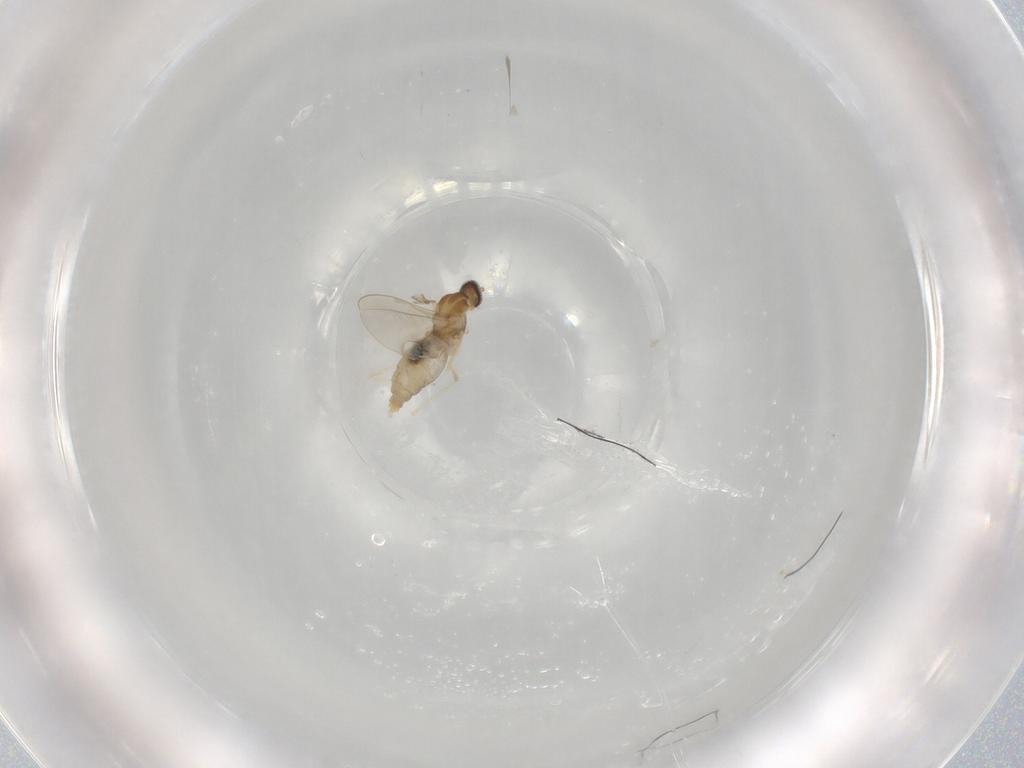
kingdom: Animalia
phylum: Arthropoda
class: Insecta
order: Diptera
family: Cecidomyiidae
